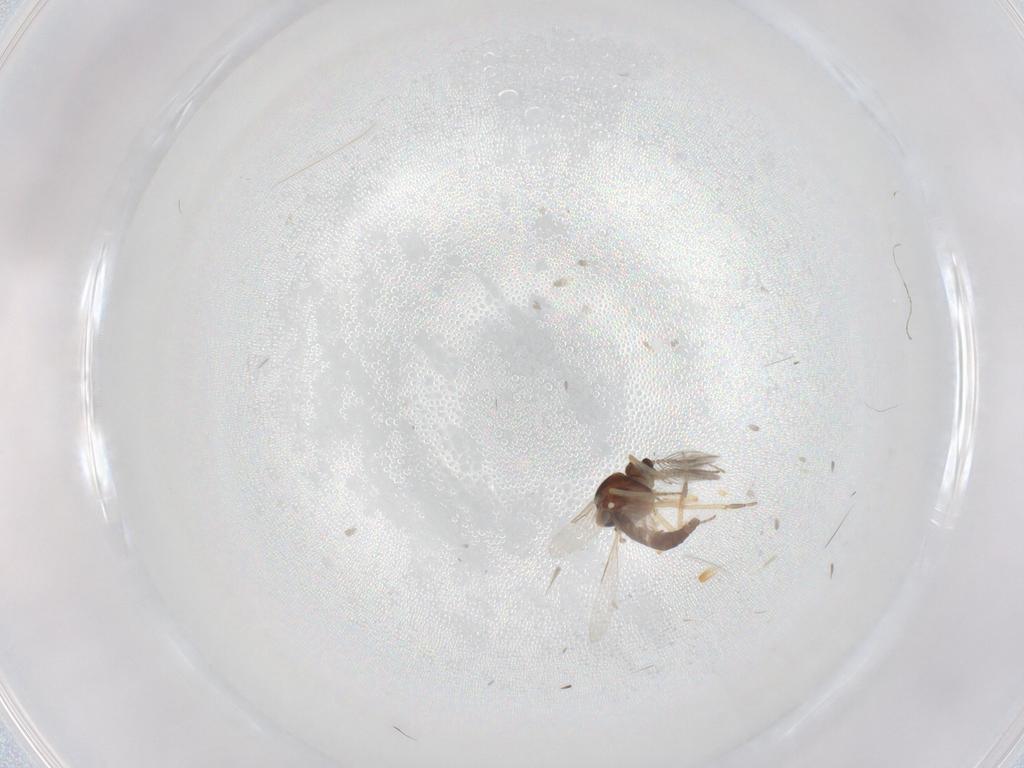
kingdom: Animalia
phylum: Arthropoda
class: Insecta
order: Diptera
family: Ceratopogonidae
